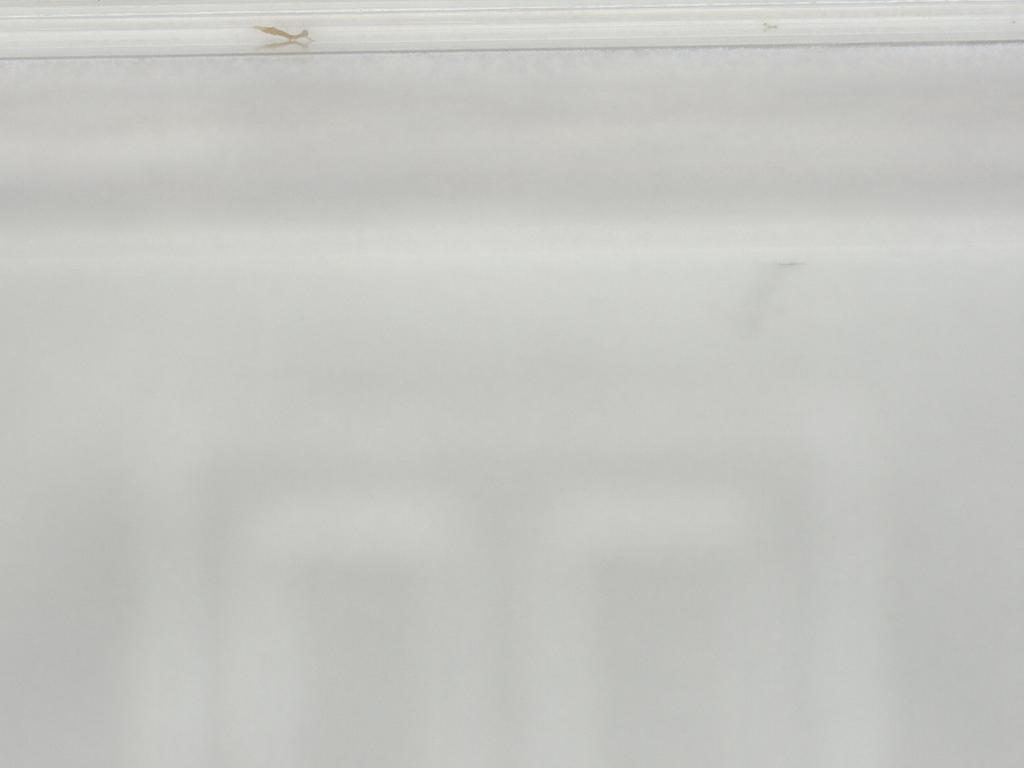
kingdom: Animalia
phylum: Arthropoda
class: Insecta
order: Diptera
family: Phoridae
